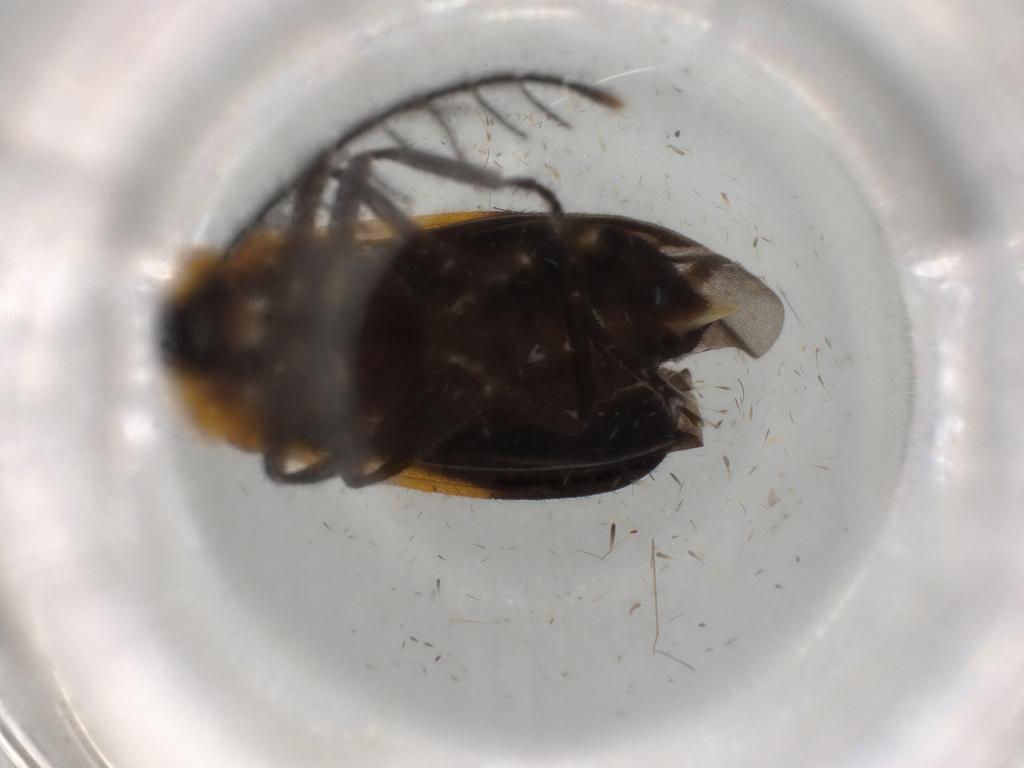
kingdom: Animalia
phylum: Arthropoda
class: Insecta
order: Coleoptera
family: Lampyridae
